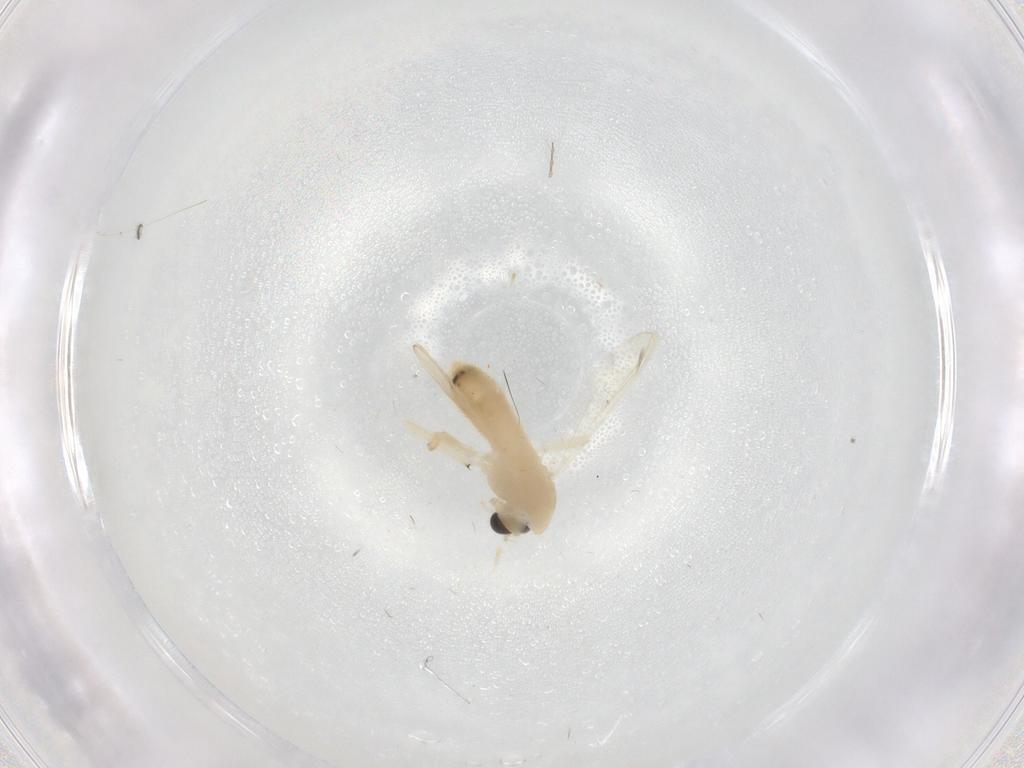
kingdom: Animalia
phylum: Arthropoda
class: Insecta
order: Diptera
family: Chironomidae
